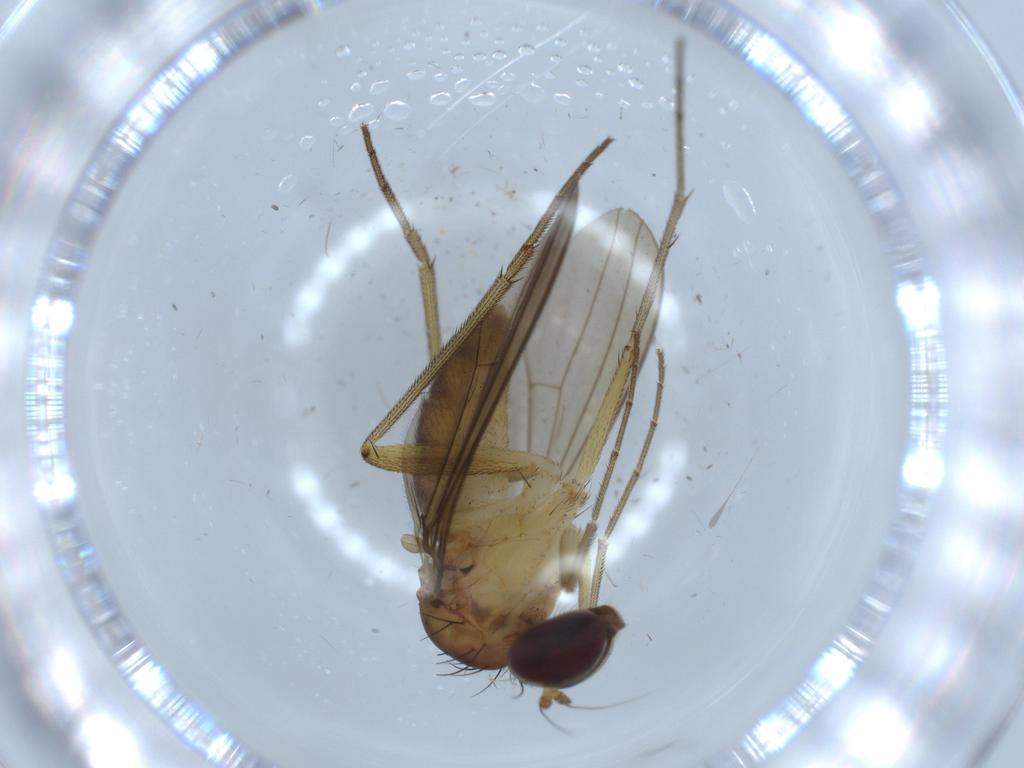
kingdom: Animalia
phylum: Arthropoda
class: Insecta
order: Diptera
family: Dolichopodidae
